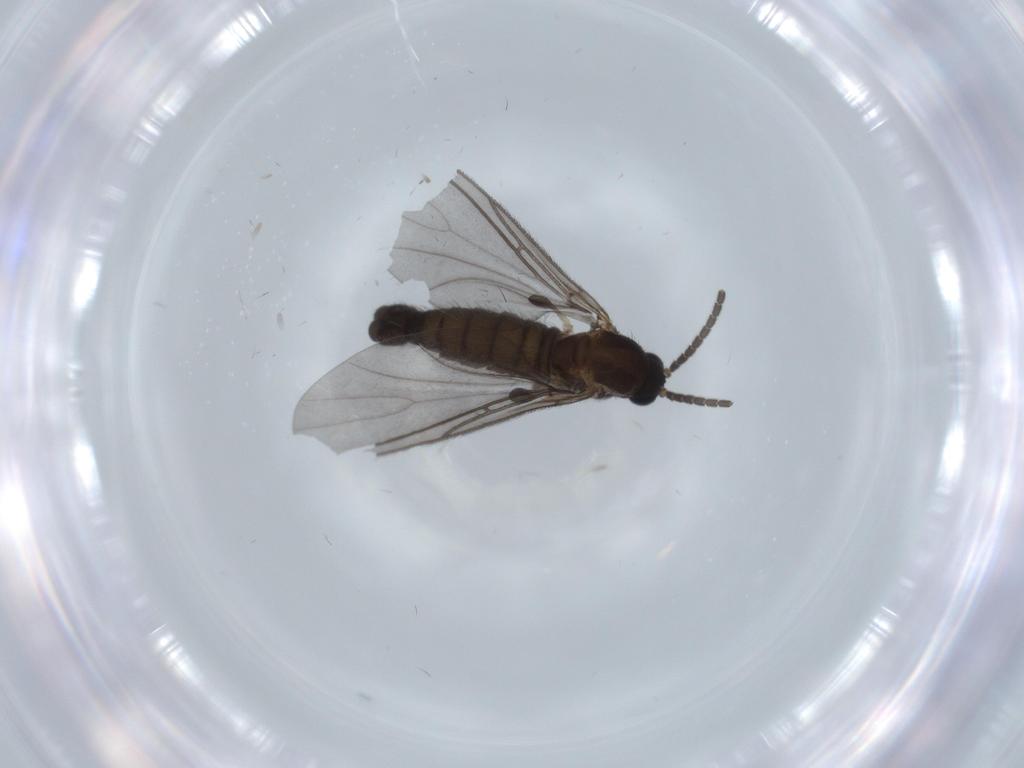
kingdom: Animalia
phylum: Arthropoda
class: Insecta
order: Diptera
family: Sciaridae
